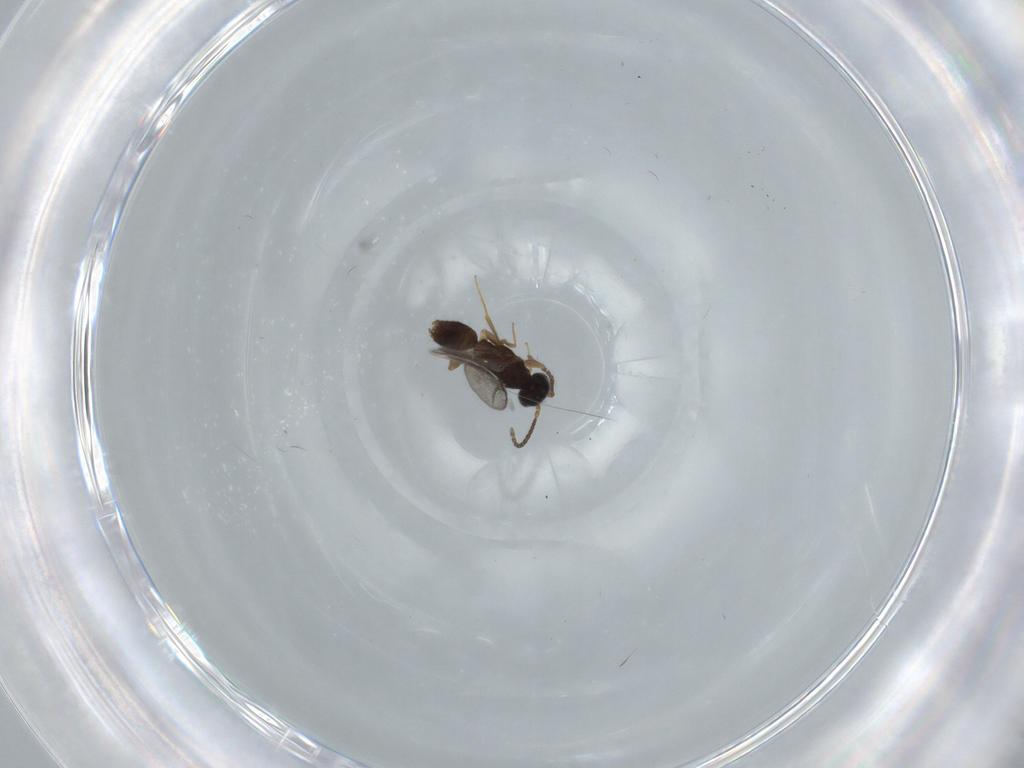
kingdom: Animalia
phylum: Arthropoda
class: Insecta
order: Hymenoptera
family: Bethylidae
